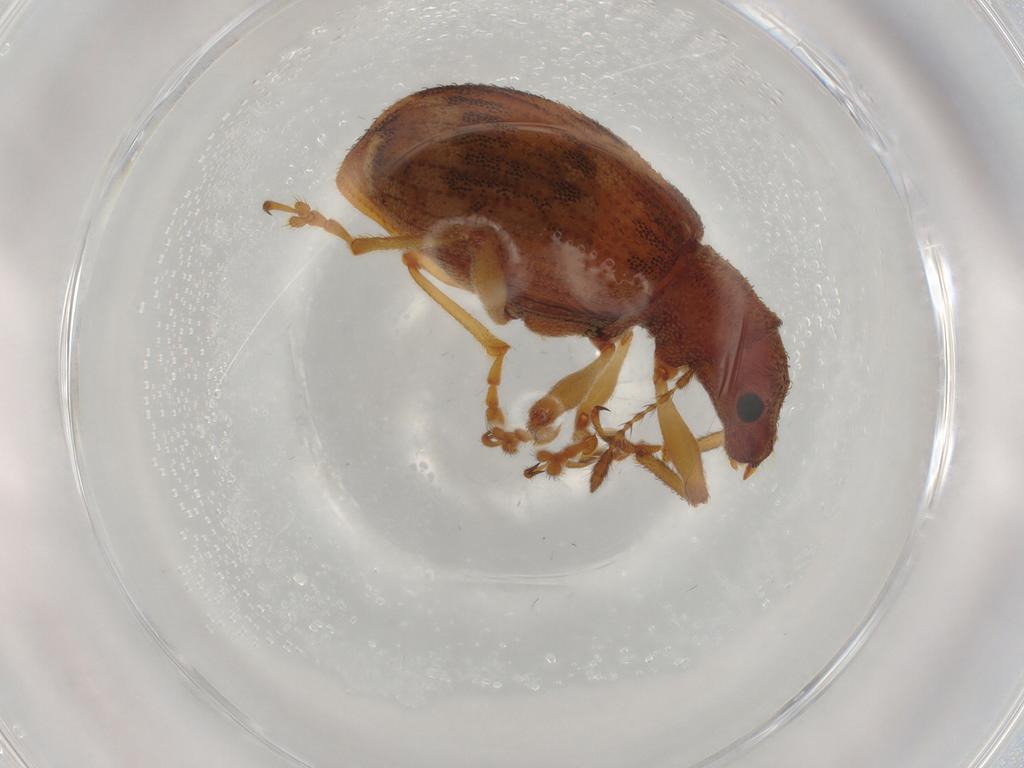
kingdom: Animalia
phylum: Arthropoda
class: Insecta
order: Coleoptera
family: Curculionidae
